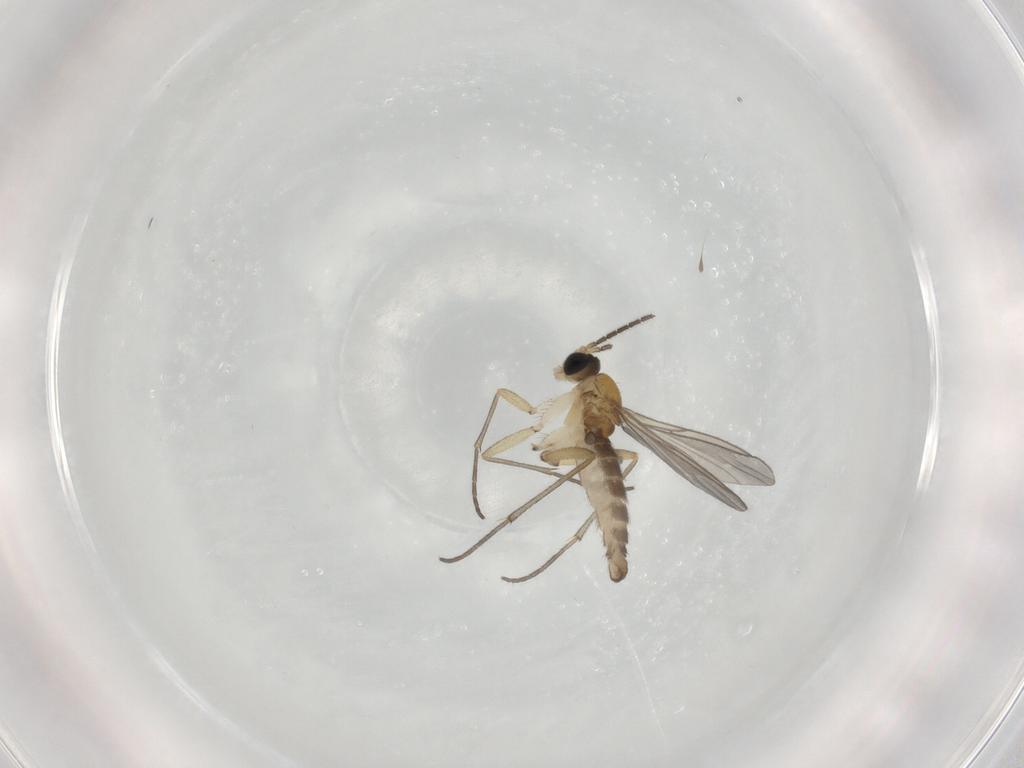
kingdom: Animalia
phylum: Arthropoda
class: Insecta
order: Diptera
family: Sciaridae
